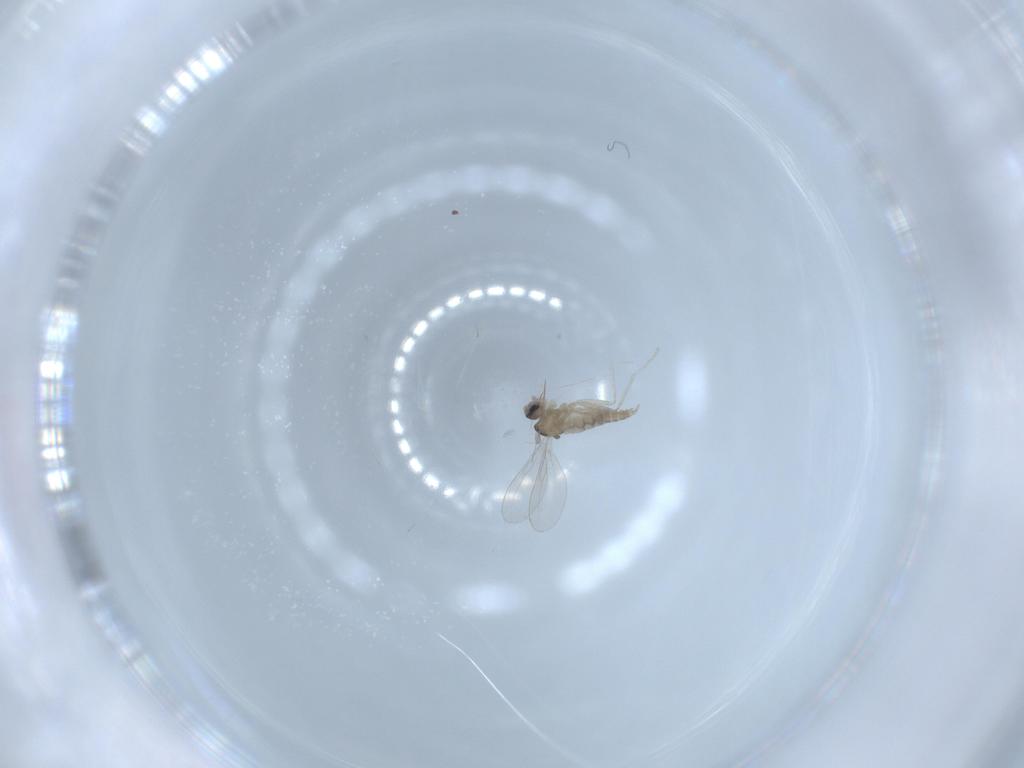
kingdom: Animalia
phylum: Arthropoda
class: Insecta
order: Diptera
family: Cecidomyiidae
